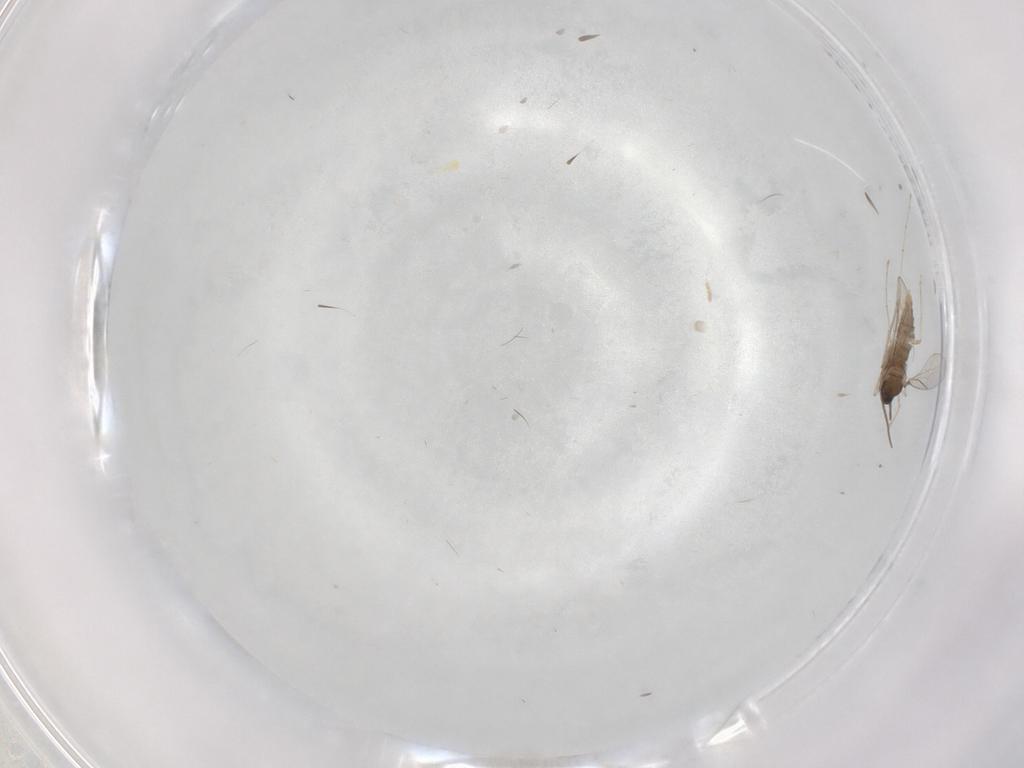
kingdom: Animalia
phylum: Arthropoda
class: Insecta
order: Diptera
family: Cecidomyiidae
